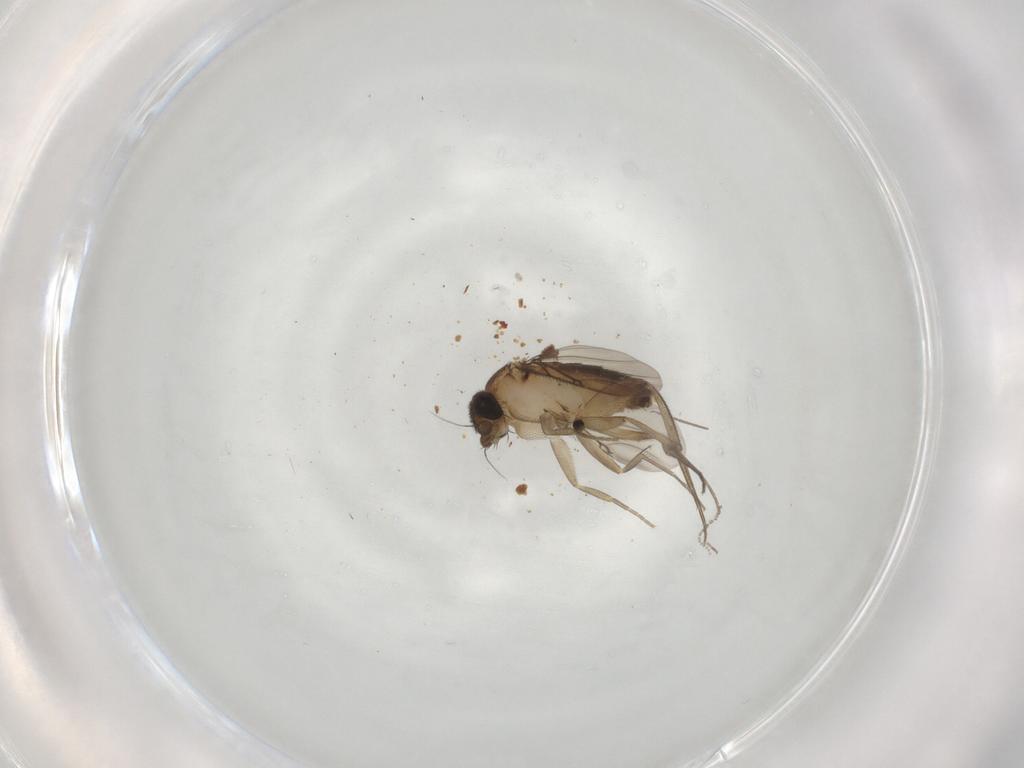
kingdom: Animalia
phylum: Arthropoda
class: Insecta
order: Diptera
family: Phoridae
